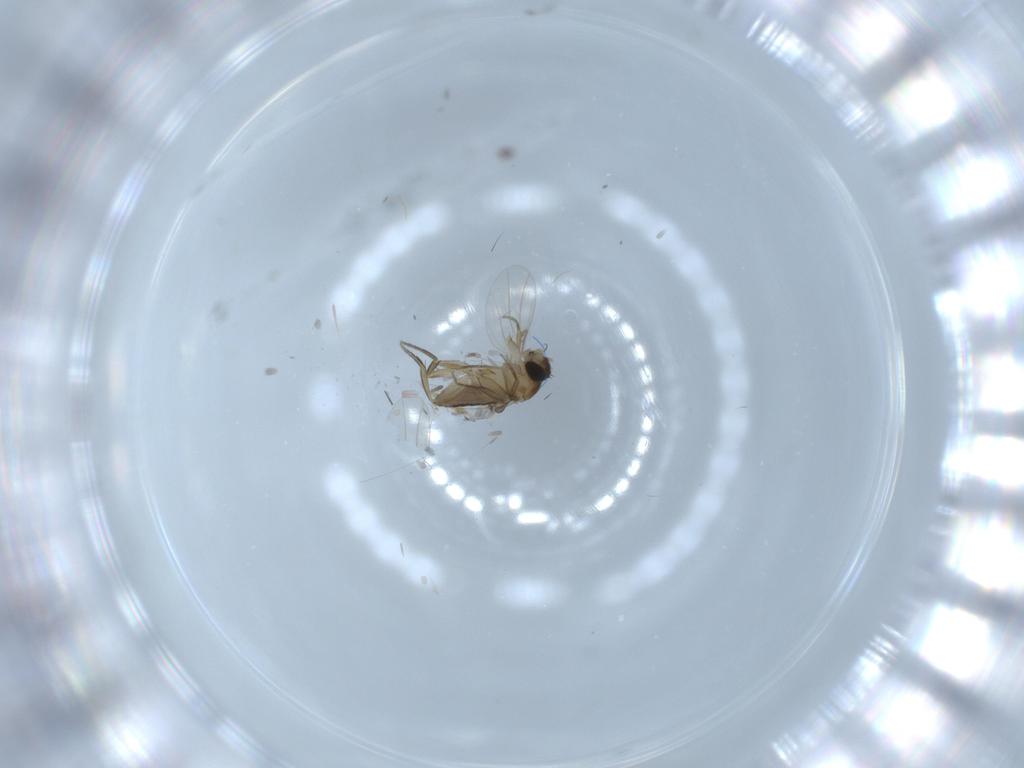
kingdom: Animalia
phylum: Arthropoda
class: Insecta
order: Diptera
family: Phoridae
